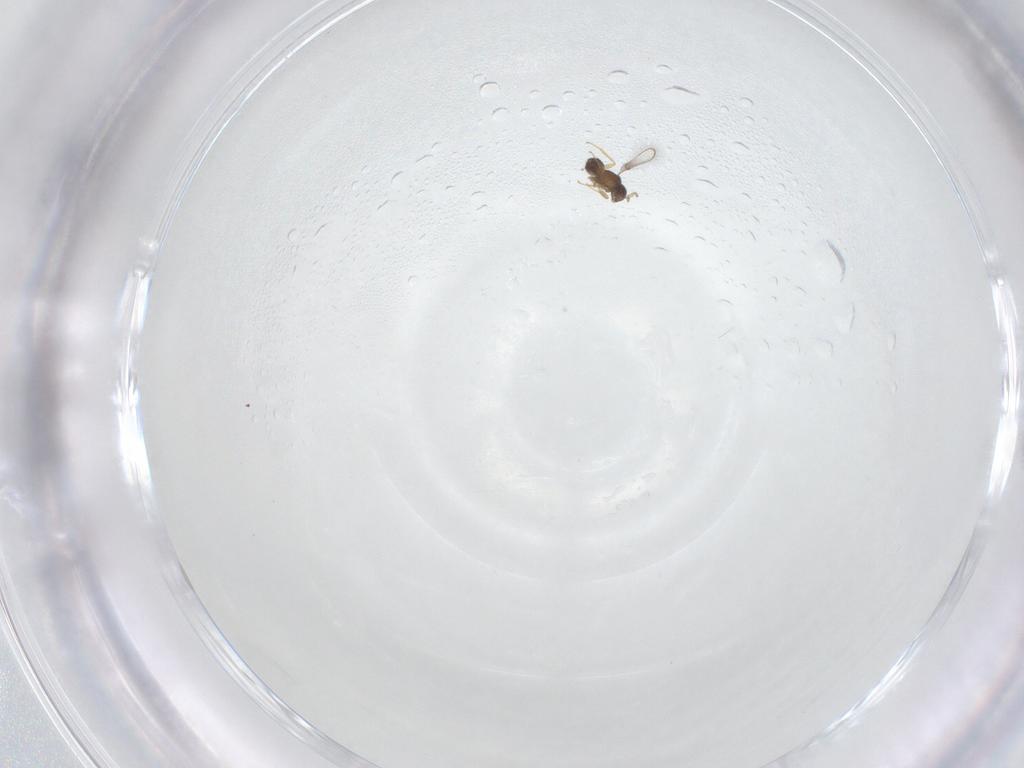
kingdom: Animalia
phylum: Arthropoda
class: Insecta
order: Hymenoptera
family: Mymaridae
